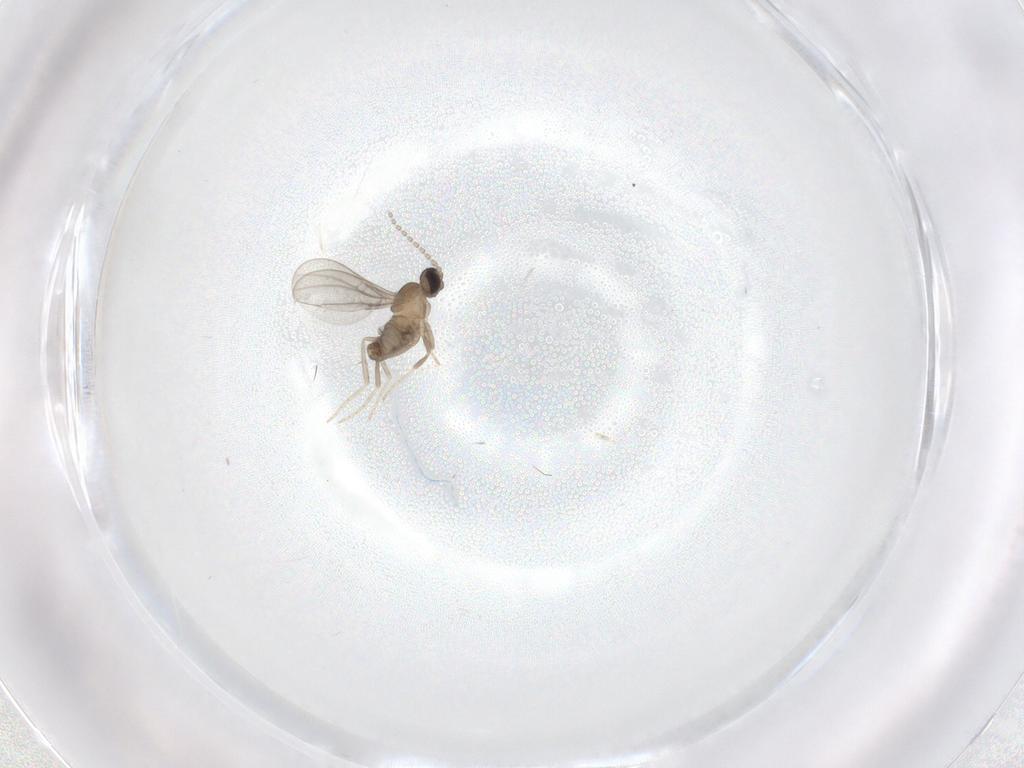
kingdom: Animalia
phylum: Arthropoda
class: Insecta
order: Diptera
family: Cecidomyiidae
